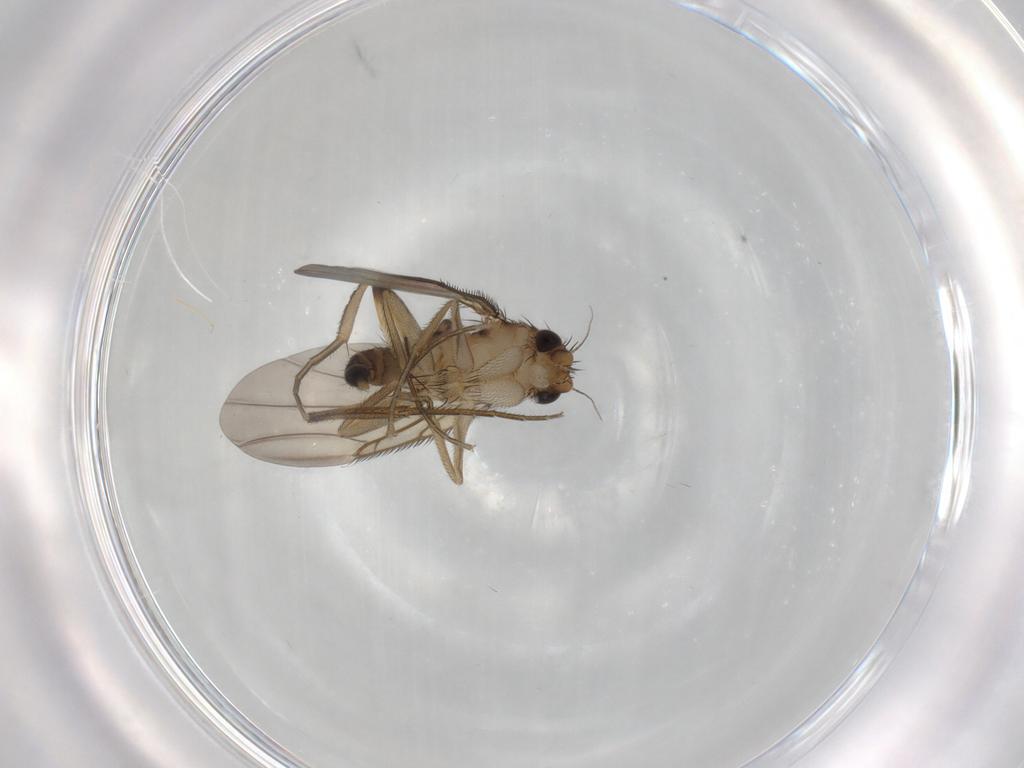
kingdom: Animalia
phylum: Arthropoda
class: Insecta
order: Diptera
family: Phoridae
